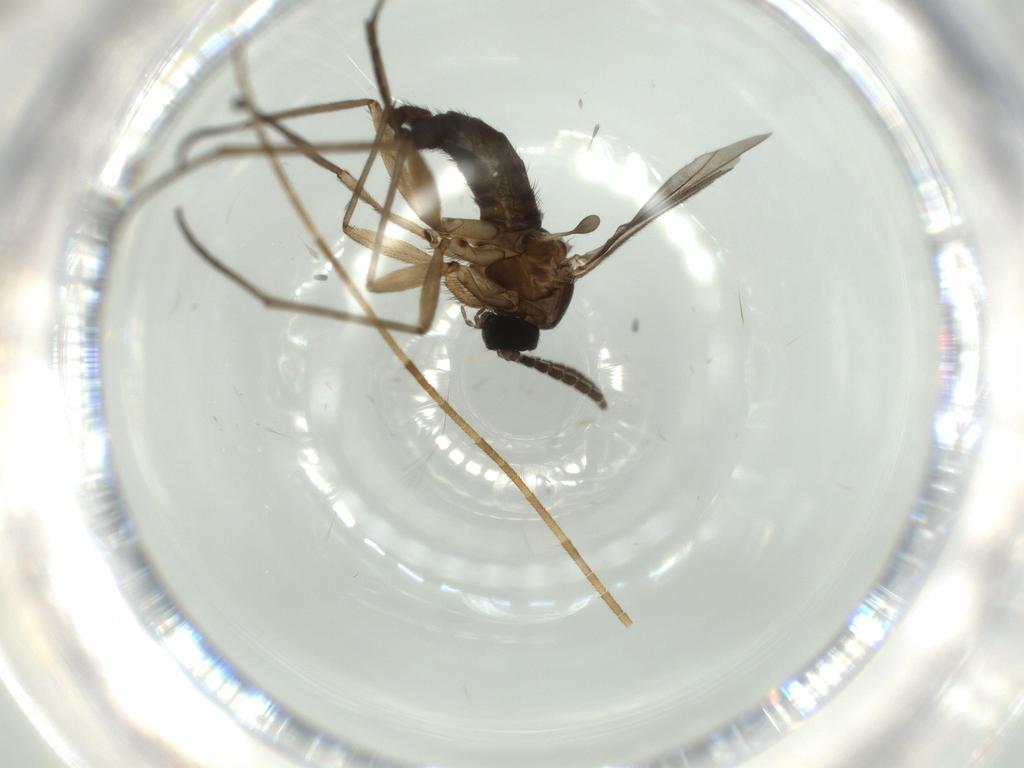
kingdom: Animalia
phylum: Arthropoda
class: Insecta
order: Diptera
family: Sciaridae
